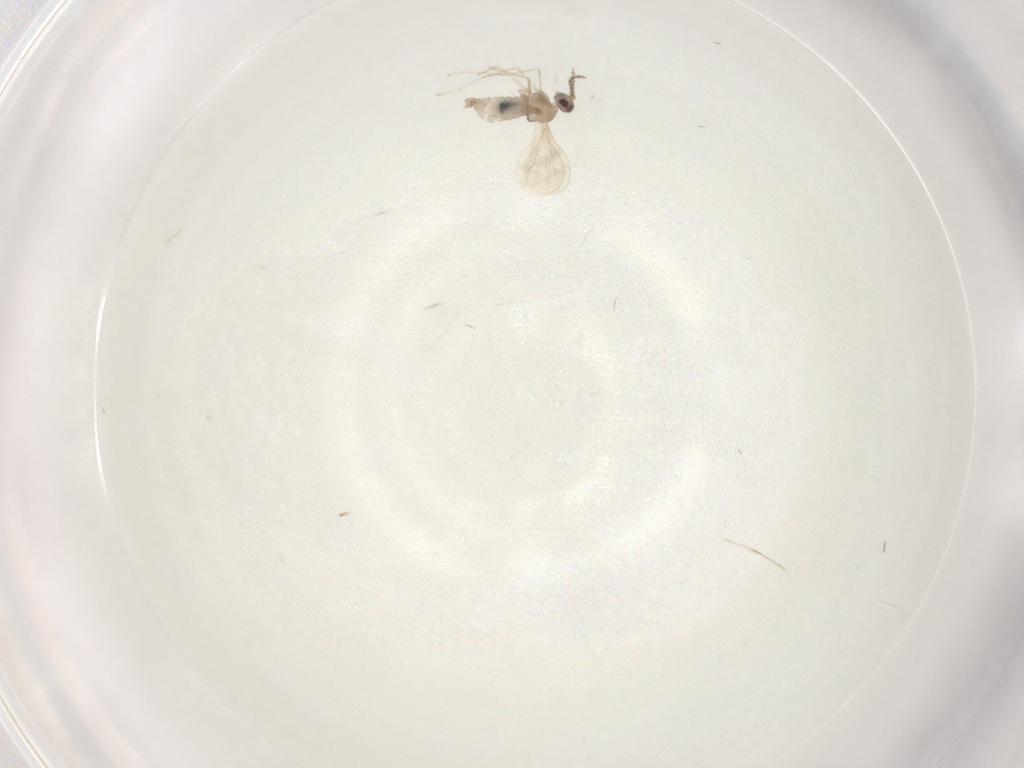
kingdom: Animalia
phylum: Arthropoda
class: Insecta
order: Diptera
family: Cecidomyiidae
